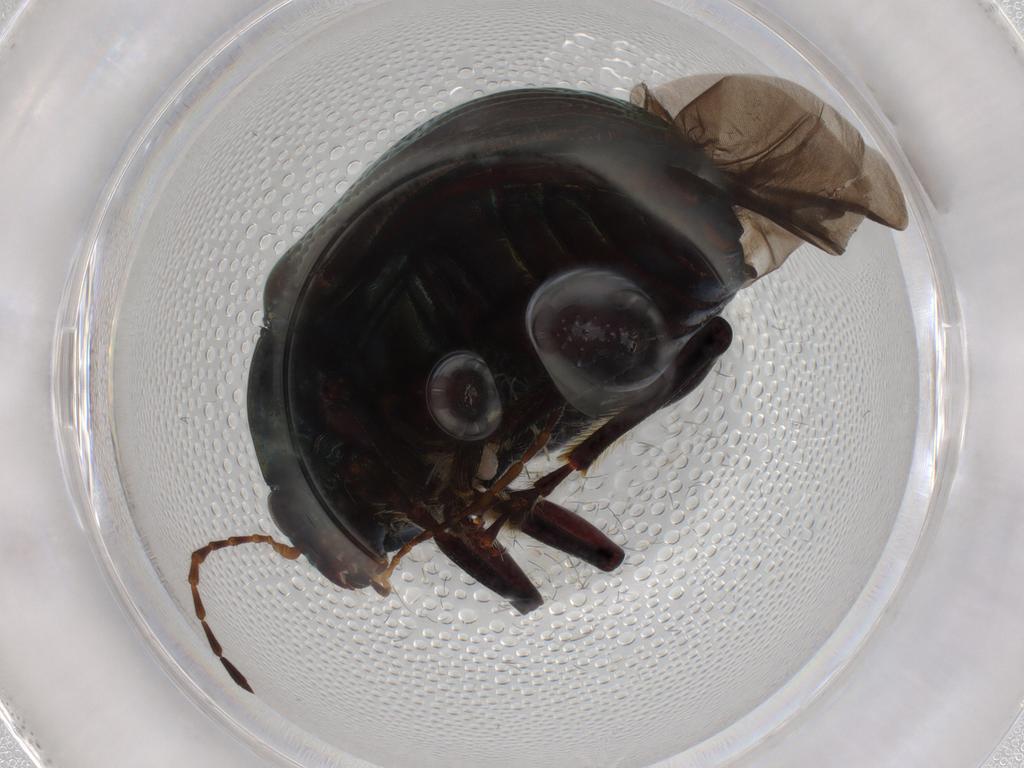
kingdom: Animalia
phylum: Arthropoda
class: Insecta
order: Coleoptera
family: Chrysomelidae
